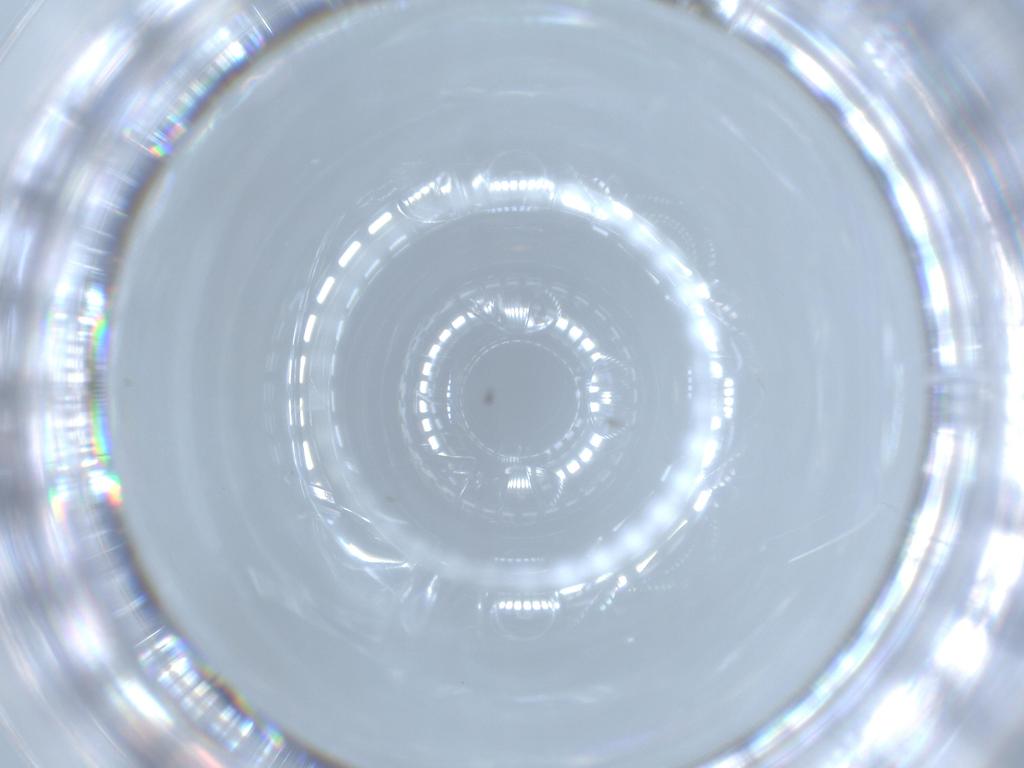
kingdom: Animalia
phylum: Arthropoda
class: Insecta
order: Diptera
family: Cecidomyiidae
